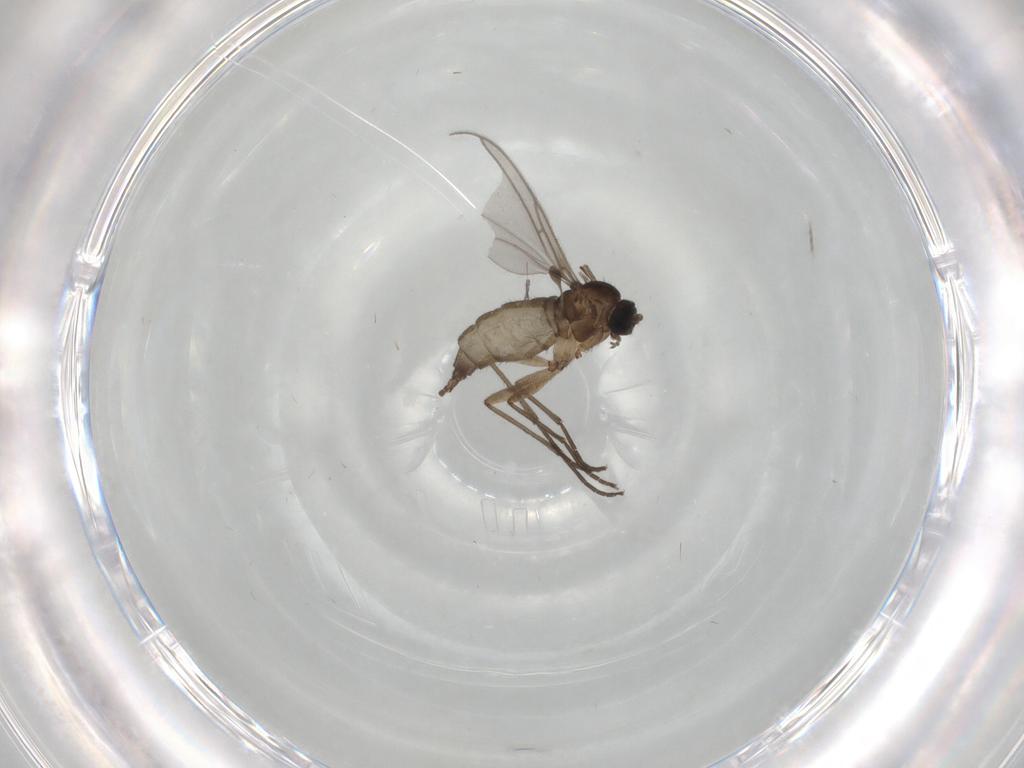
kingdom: Animalia
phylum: Arthropoda
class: Insecta
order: Diptera
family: Sciaridae
